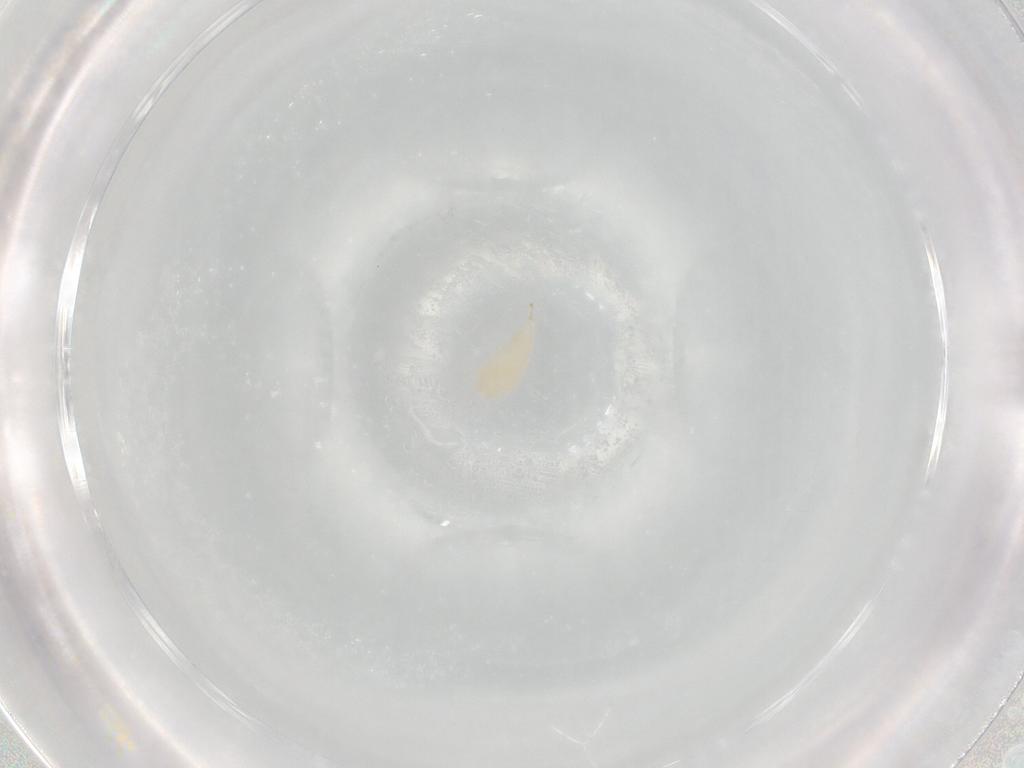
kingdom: Animalia
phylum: Arthropoda
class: Insecta
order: Hymenoptera
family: Ichneumonidae
